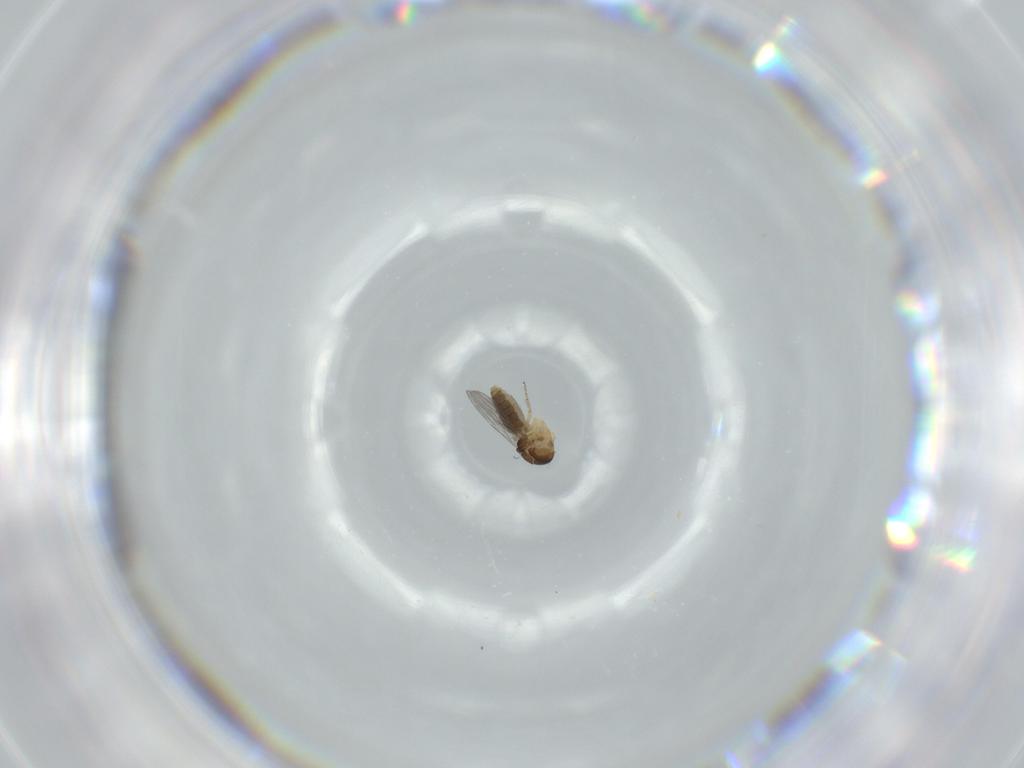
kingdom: Animalia
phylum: Arthropoda
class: Insecta
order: Diptera
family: Ceratopogonidae
